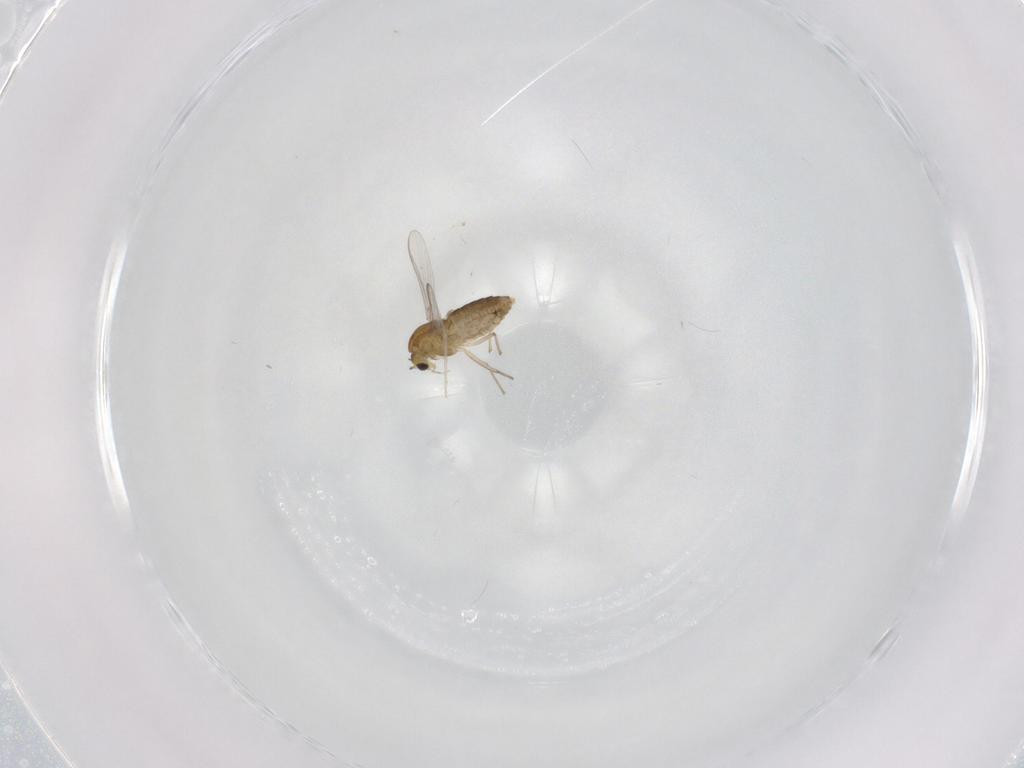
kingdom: Animalia
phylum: Arthropoda
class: Insecta
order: Diptera
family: Chironomidae
